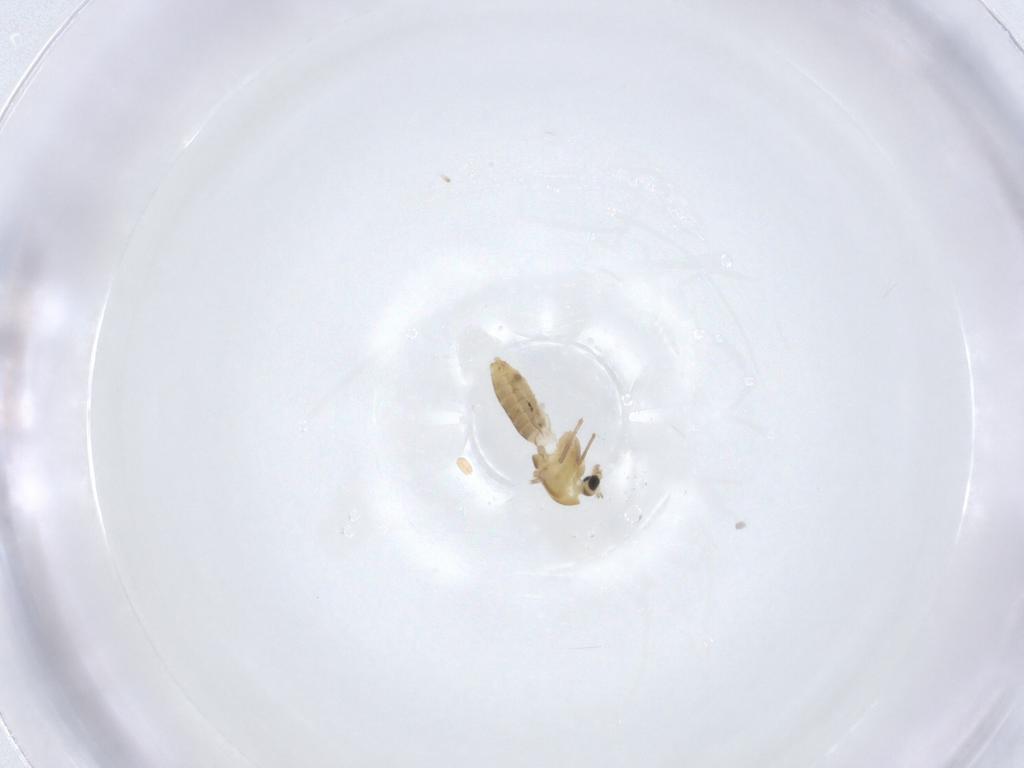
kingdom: Animalia
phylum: Arthropoda
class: Insecta
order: Diptera
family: Chironomidae
